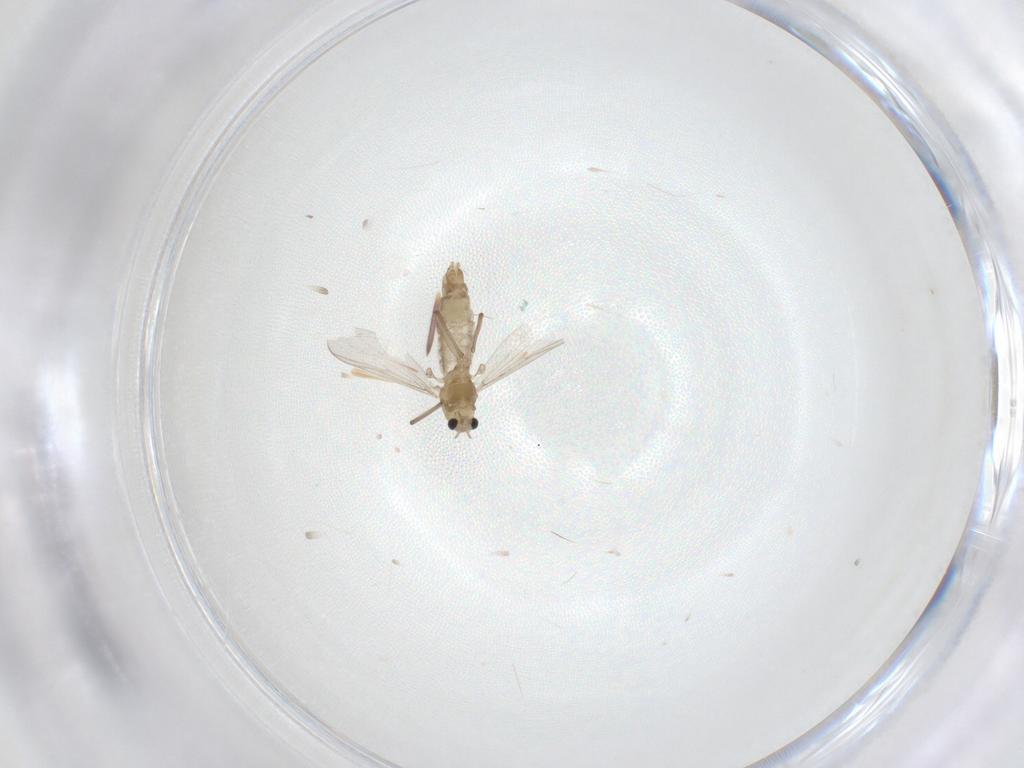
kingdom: Animalia
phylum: Arthropoda
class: Insecta
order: Diptera
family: Chironomidae
